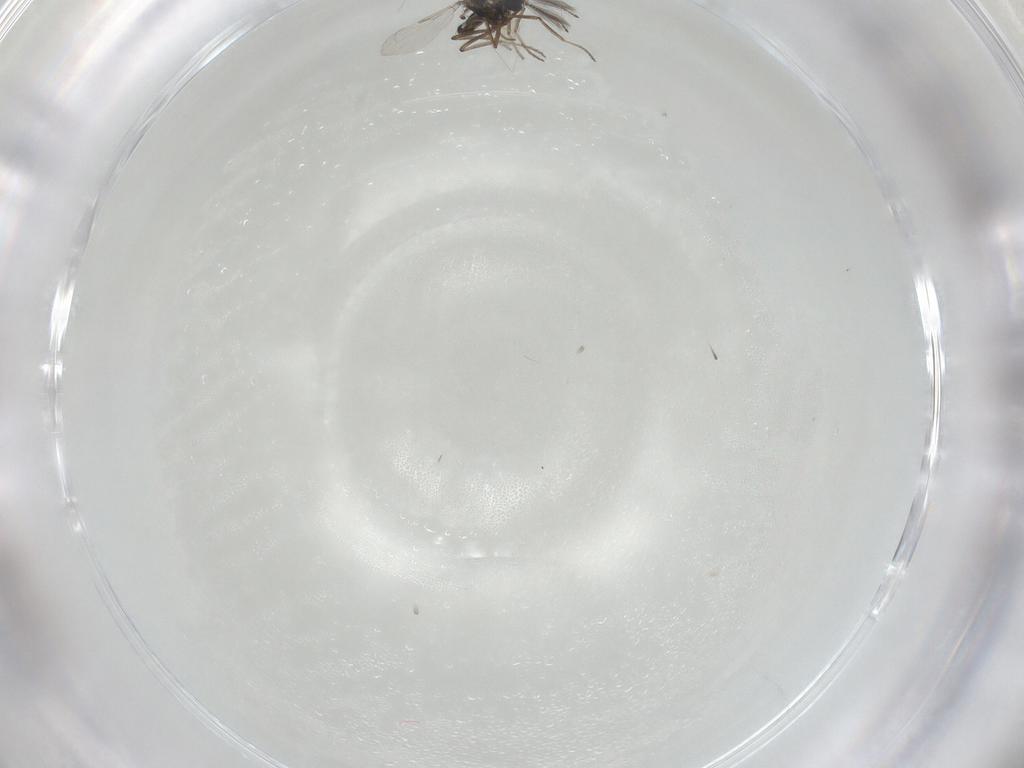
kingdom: Animalia
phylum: Arthropoda
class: Insecta
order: Diptera
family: Ceratopogonidae
